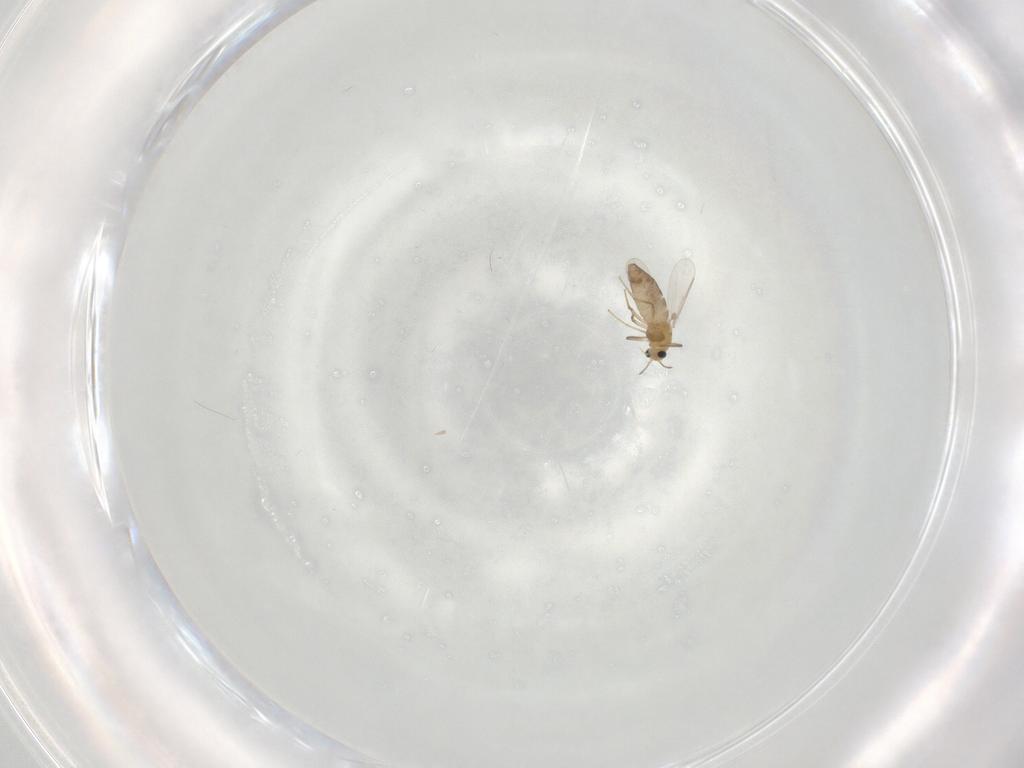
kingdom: Animalia
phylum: Arthropoda
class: Insecta
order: Diptera
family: Chironomidae
